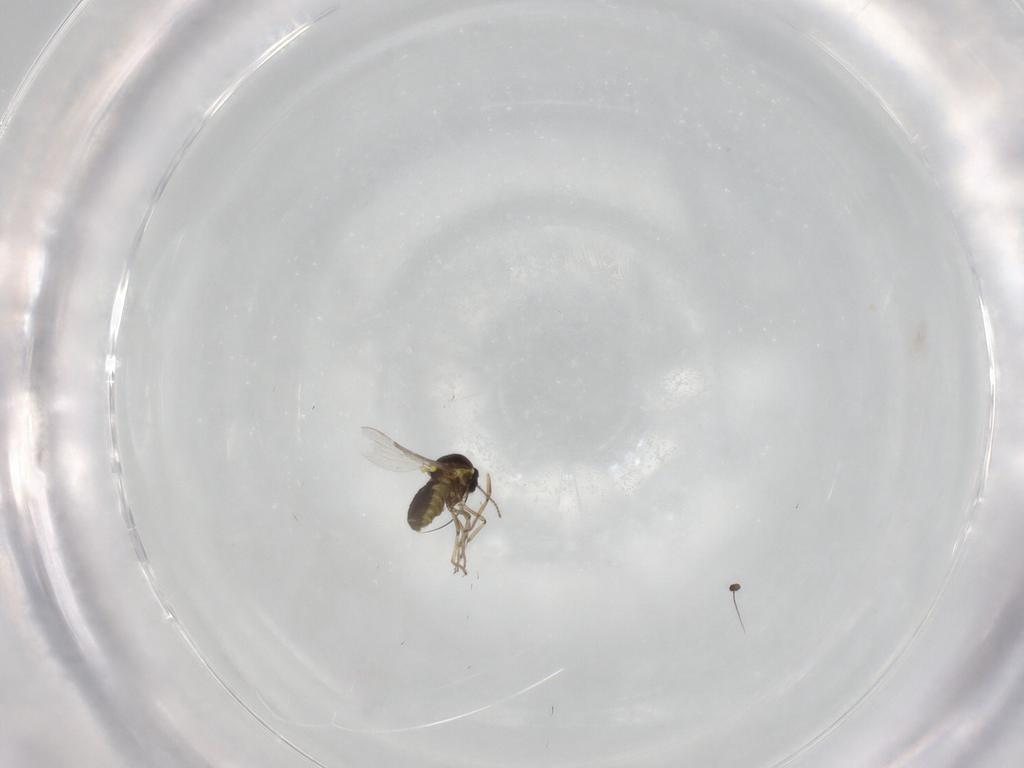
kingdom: Animalia
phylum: Arthropoda
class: Insecta
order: Diptera
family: Ceratopogonidae
